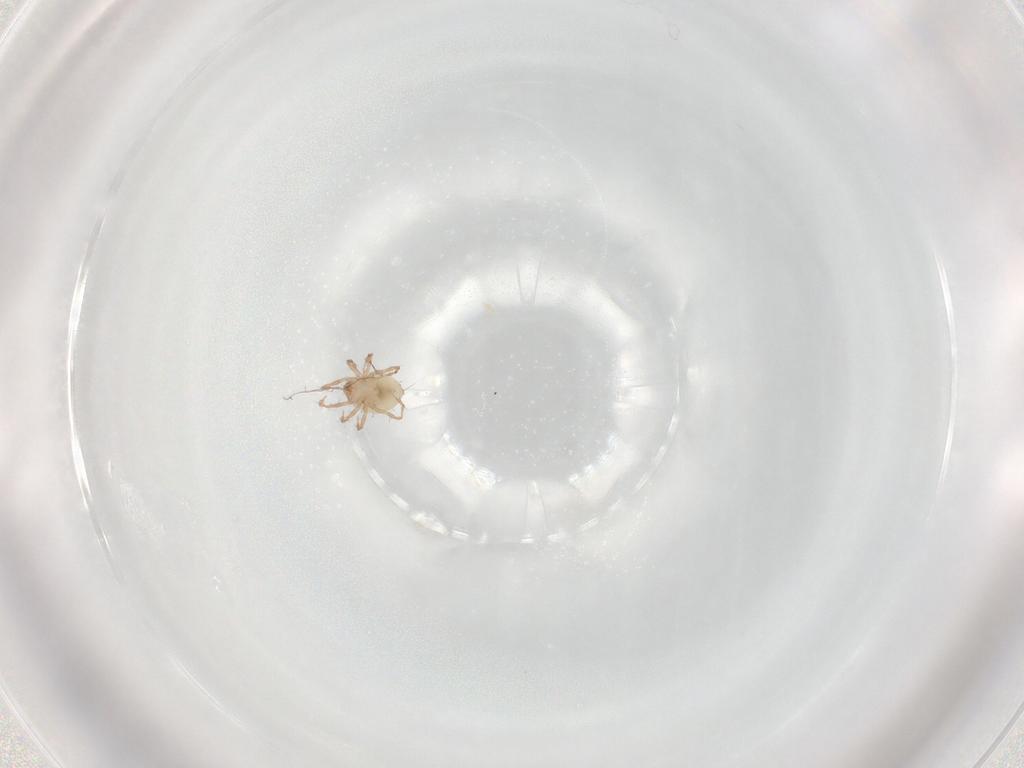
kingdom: Animalia
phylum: Arthropoda
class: Arachnida
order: Sarcoptiformes
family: Damaeidae
